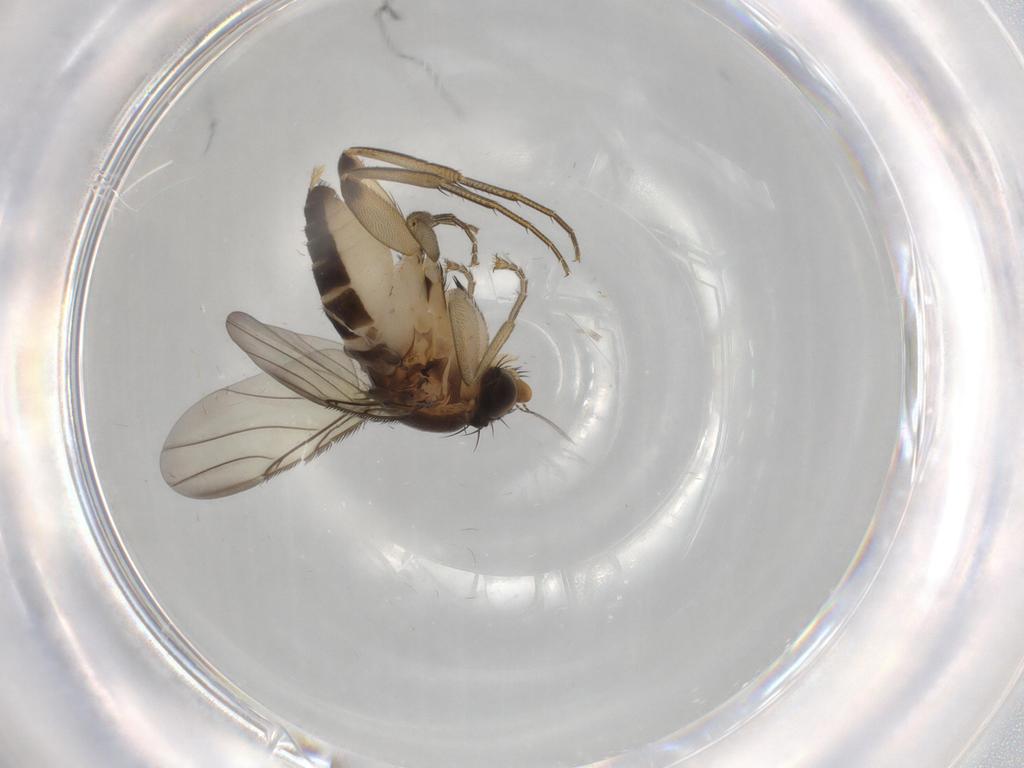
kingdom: Animalia
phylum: Arthropoda
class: Insecta
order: Diptera
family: Phoridae
